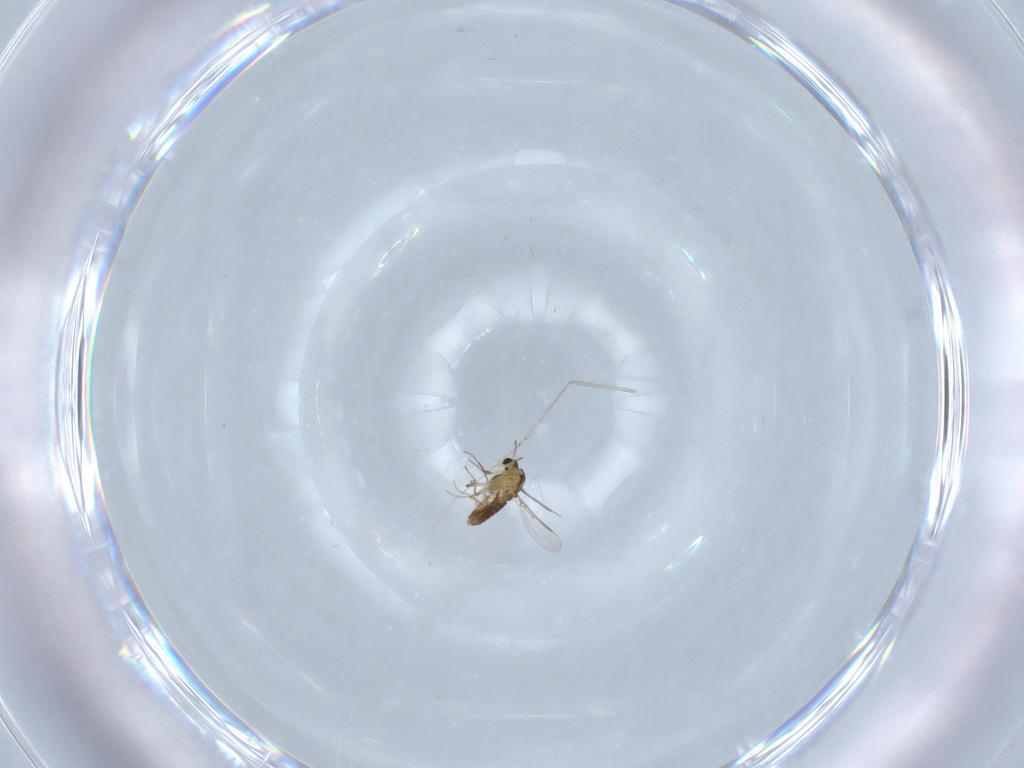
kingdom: Animalia
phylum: Arthropoda
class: Insecta
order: Diptera
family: Chironomidae
